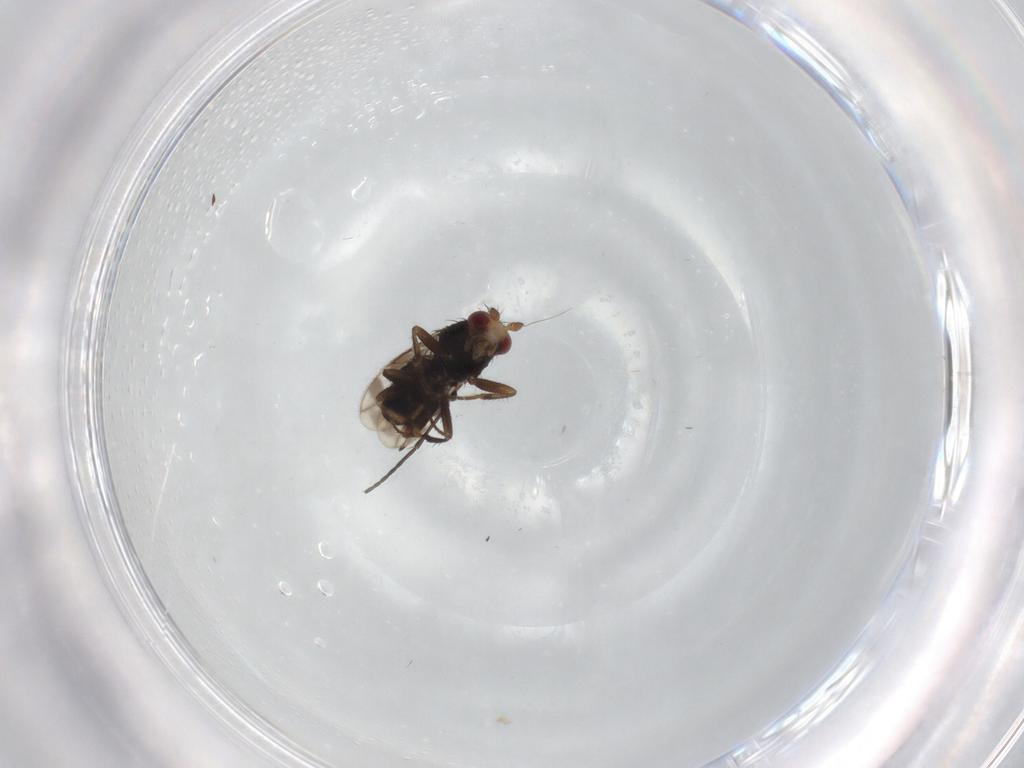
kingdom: Animalia
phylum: Arthropoda
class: Insecta
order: Diptera
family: Sphaeroceridae
